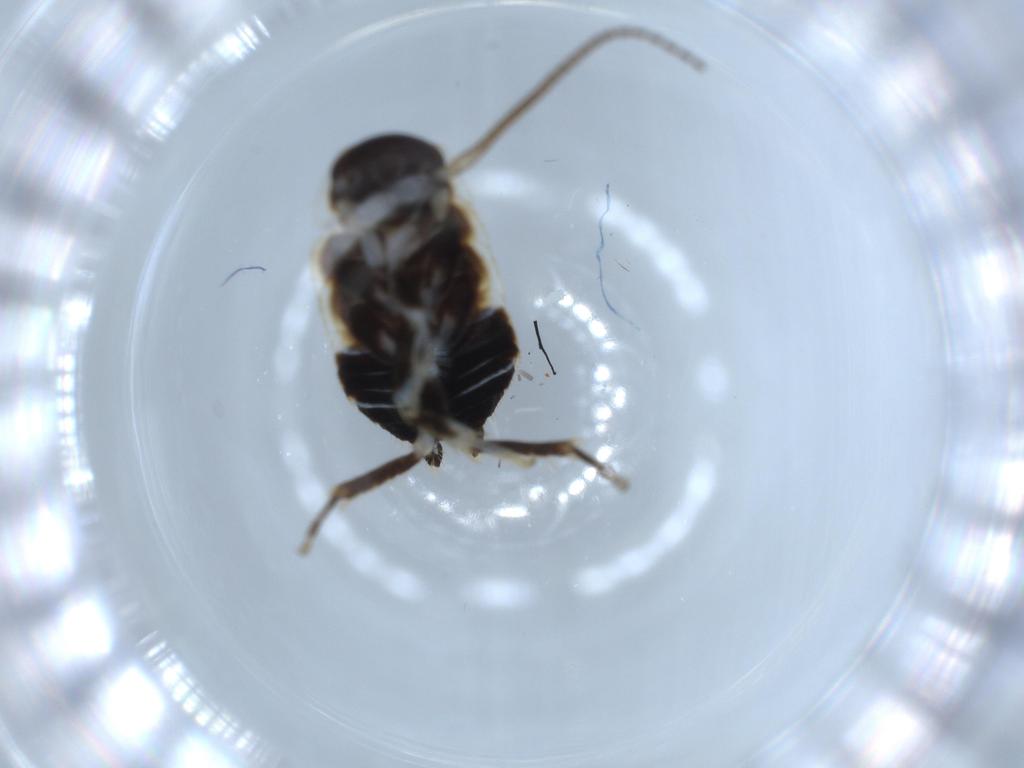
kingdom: Animalia
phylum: Arthropoda
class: Insecta
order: Blattodea
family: Ectobiidae
